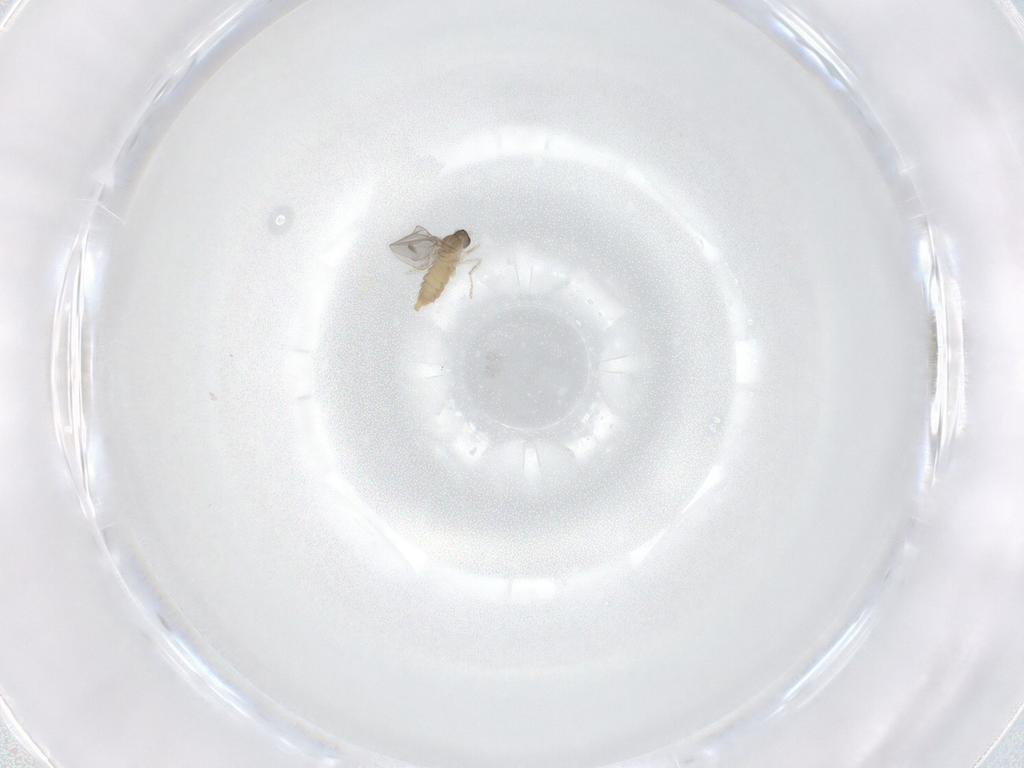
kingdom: Animalia
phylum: Arthropoda
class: Insecta
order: Diptera
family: Cecidomyiidae
